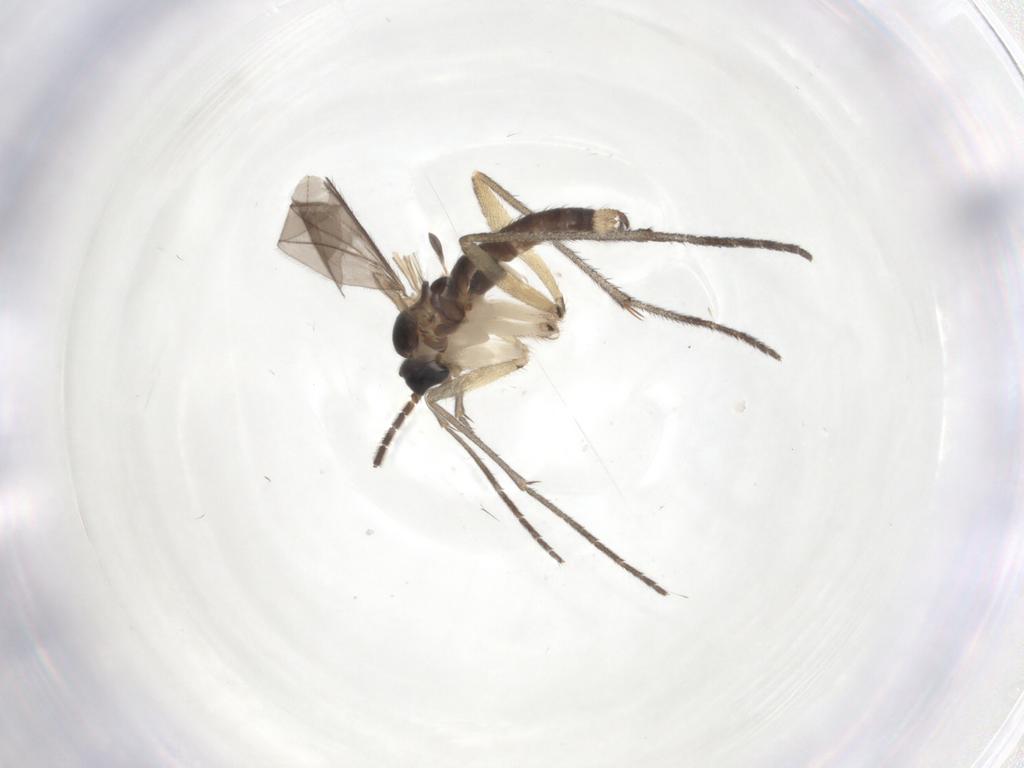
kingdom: Animalia
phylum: Arthropoda
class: Insecta
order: Diptera
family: Sciaridae
